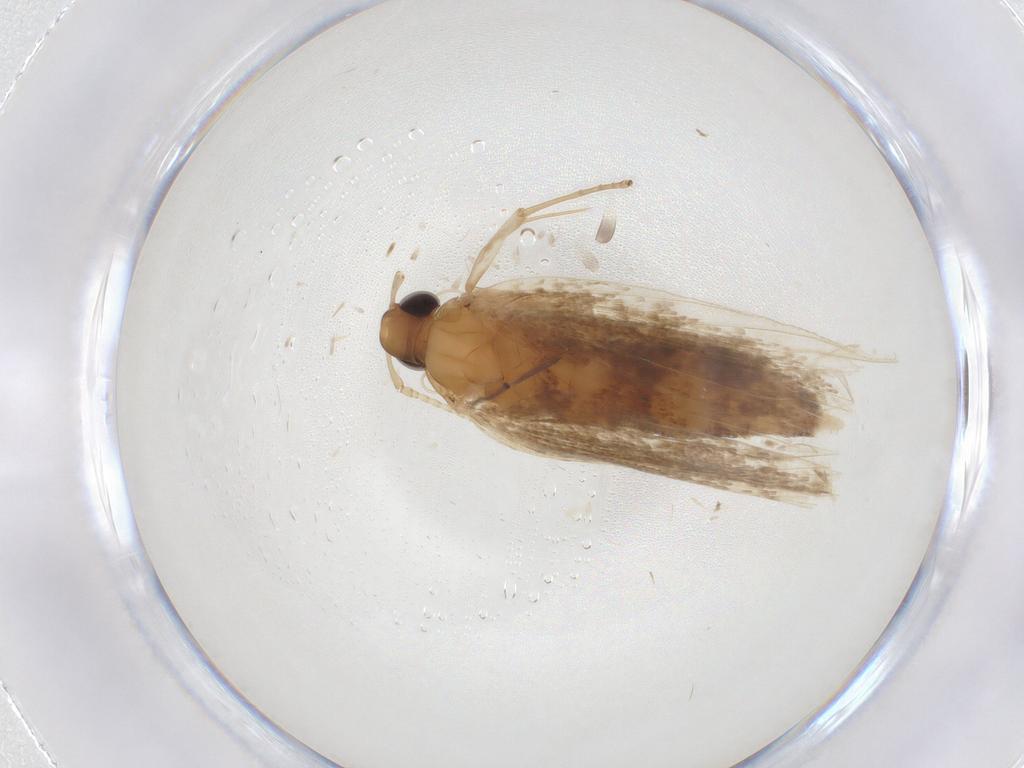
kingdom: Animalia
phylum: Arthropoda
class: Insecta
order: Lepidoptera
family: Lecithoceridae
